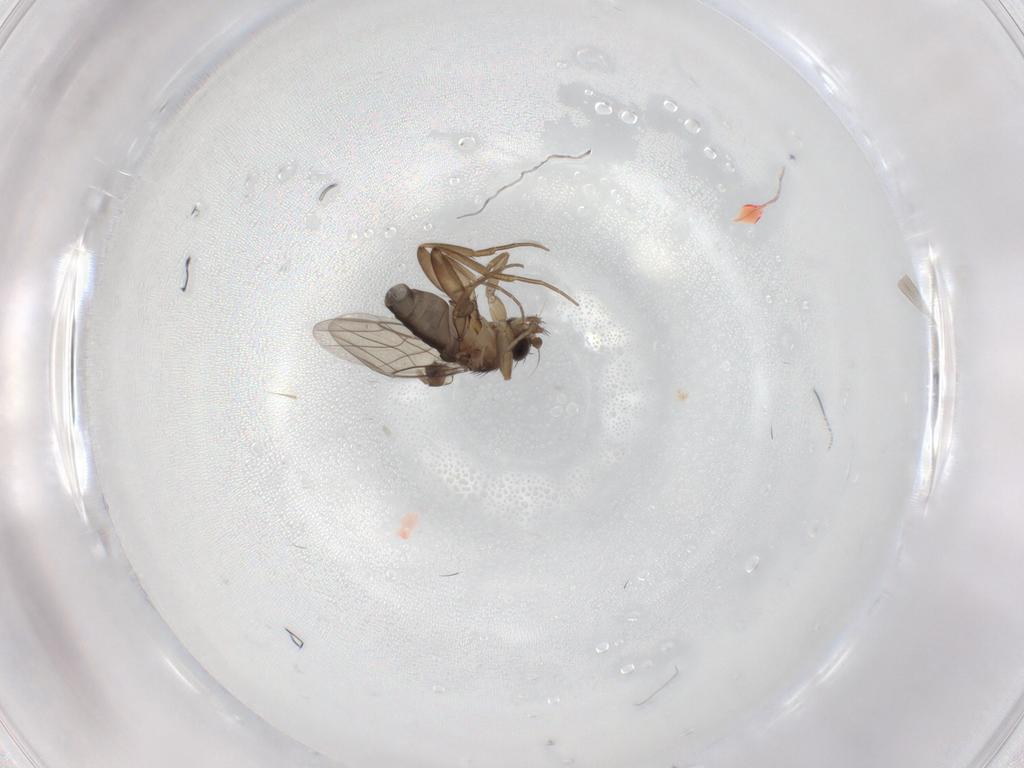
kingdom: Animalia
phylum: Arthropoda
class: Insecta
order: Diptera
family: Phoridae
